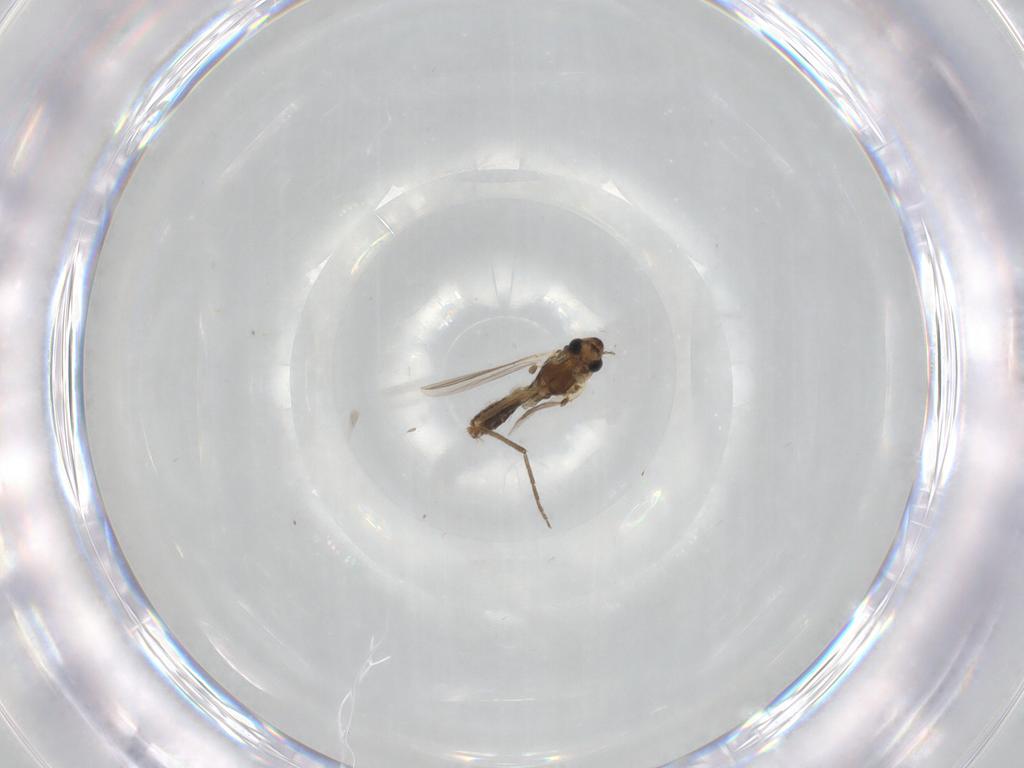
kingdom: Animalia
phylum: Arthropoda
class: Insecta
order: Diptera
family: Chironomidae
